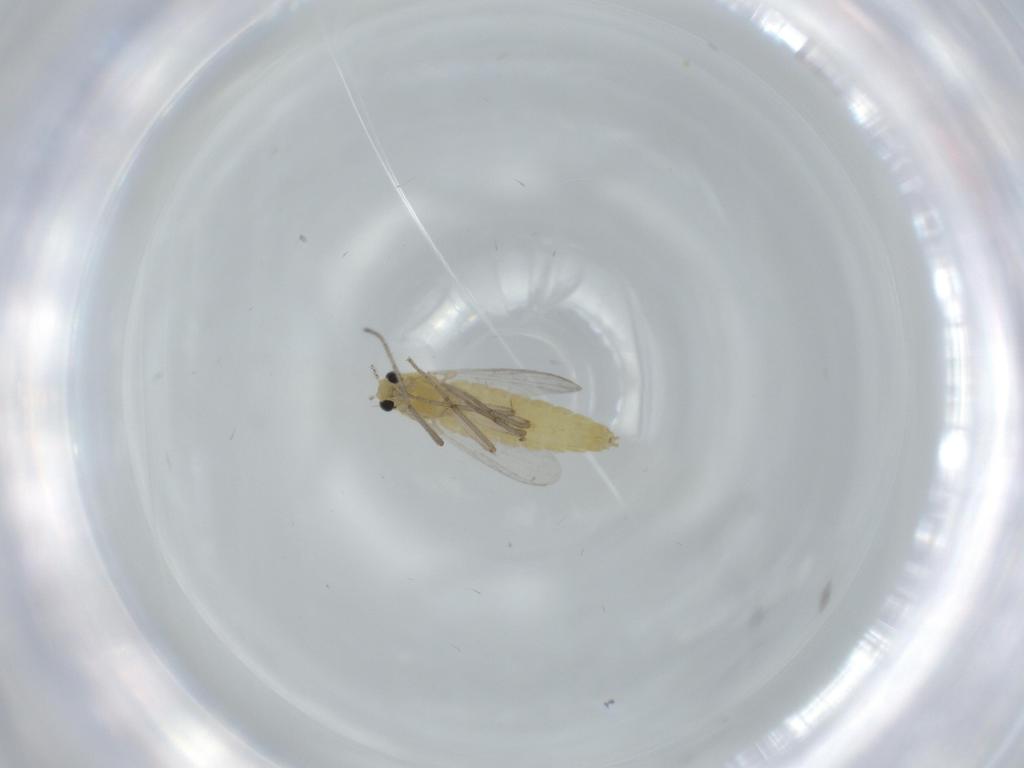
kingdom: Animalia
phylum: Arthropoda
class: Insecta
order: Diptera
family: Chironomidae
